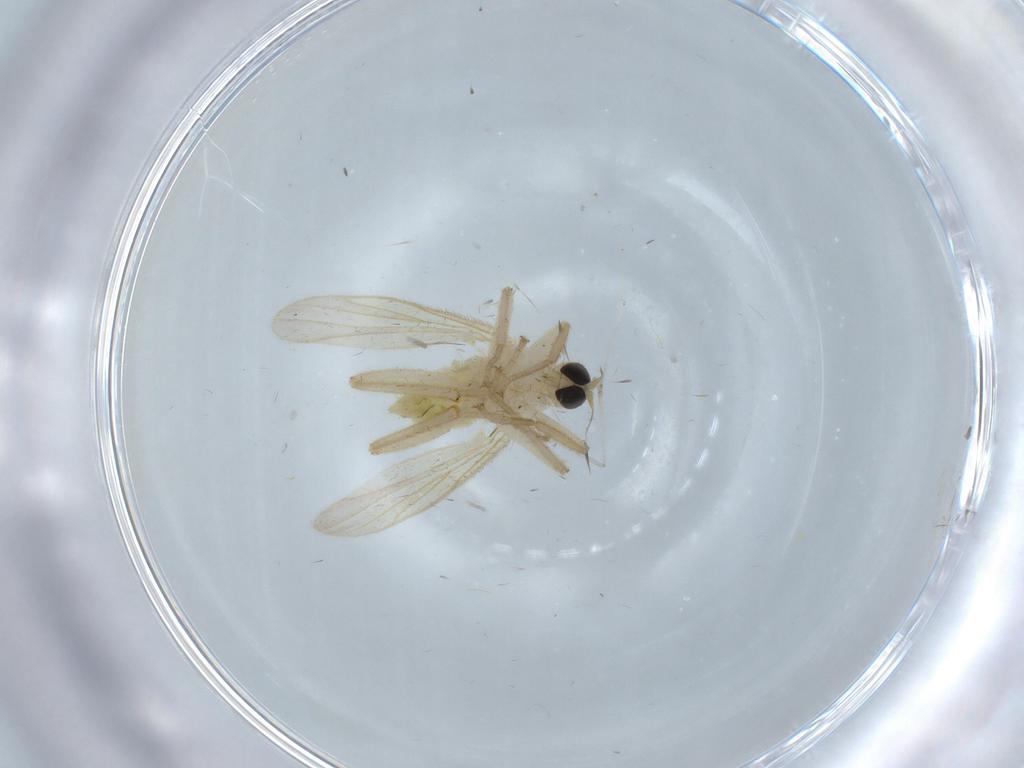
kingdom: Animalia
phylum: Arthropoda
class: Insecta
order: Diptera
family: Hybotidae
